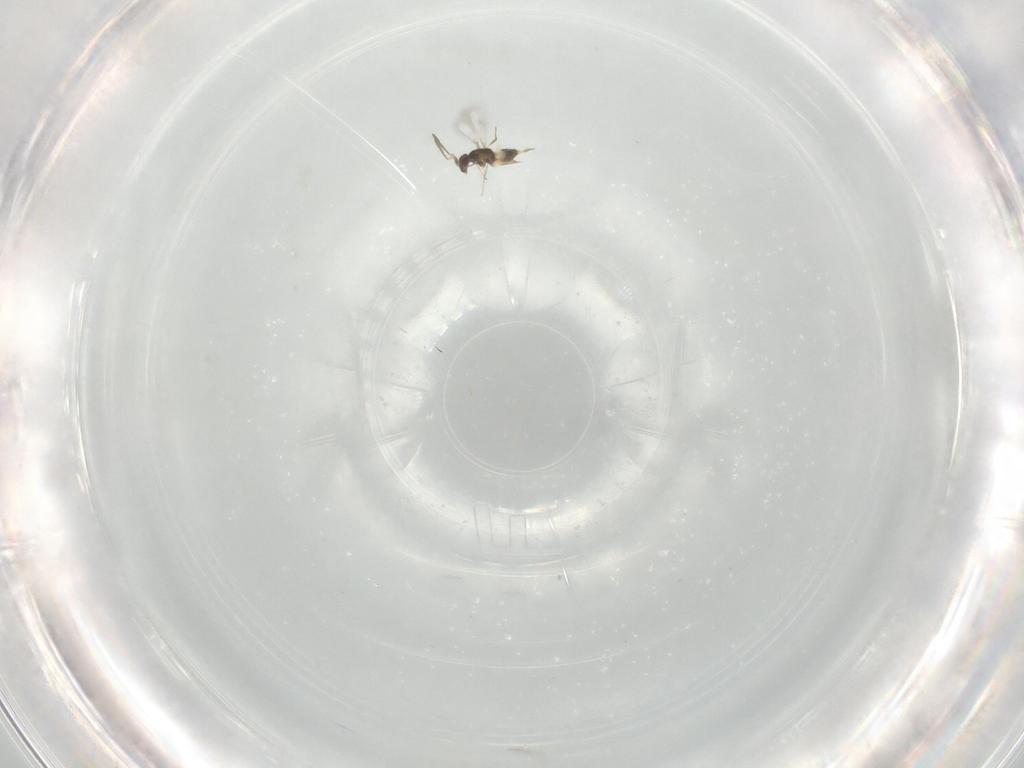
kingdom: Animalia
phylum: Arthropoda
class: Insecta
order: Hymenoptera
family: Mymaridae
